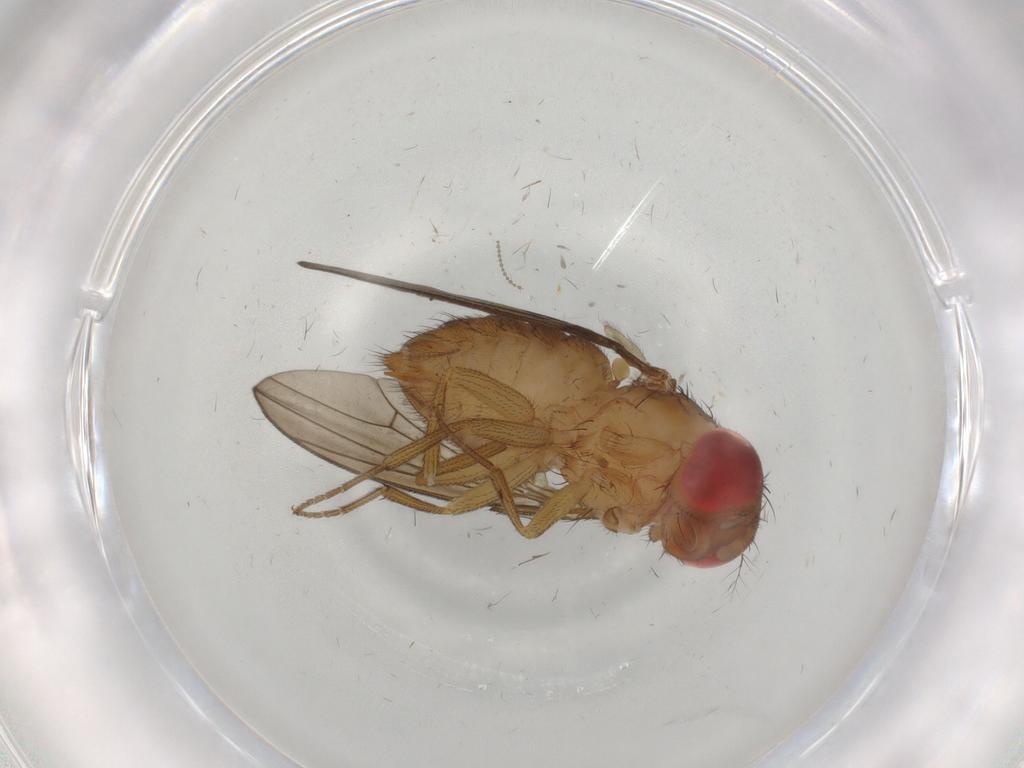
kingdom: Animalia
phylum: Arthropoda
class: Insecta
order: Diptera
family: Drosophilidae
